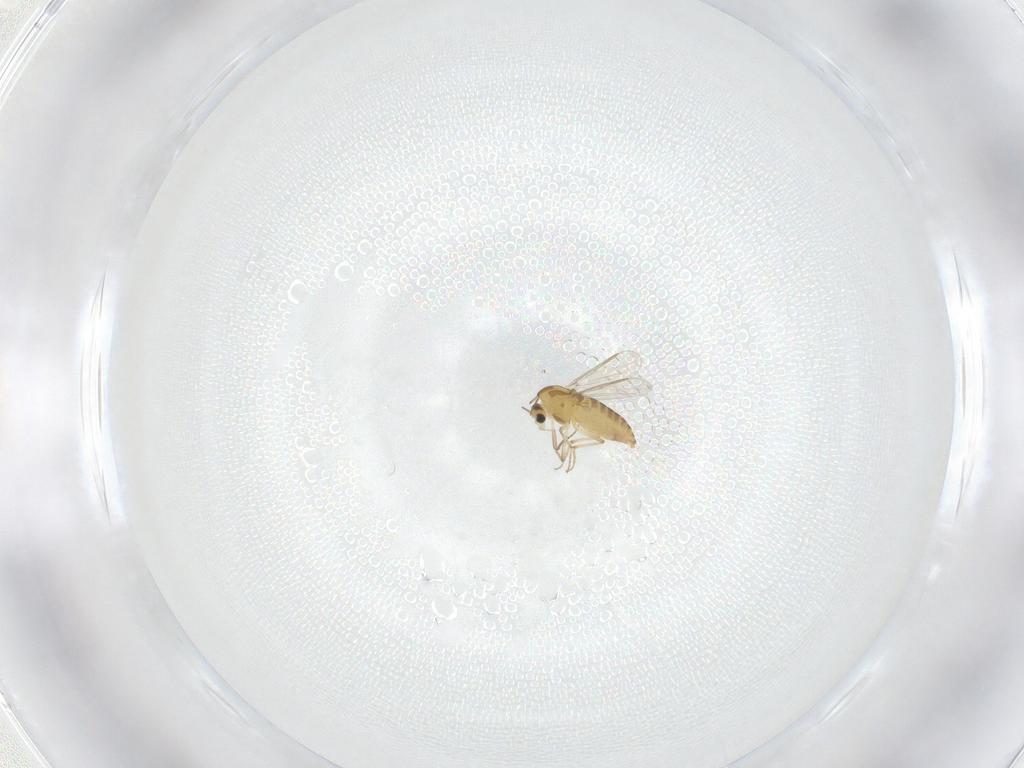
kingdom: Animalia
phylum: Arthropoda
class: Insecta
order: Diptera
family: Chironomidae
